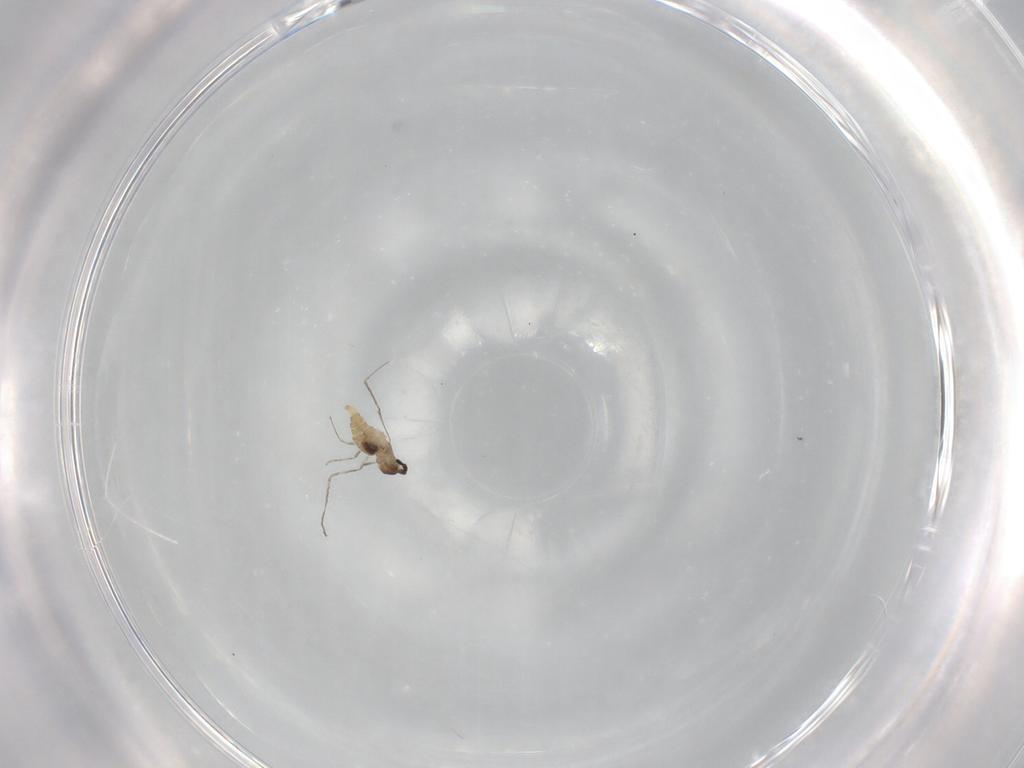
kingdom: Animalia
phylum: Arthropoda
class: Insecta
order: Diptera
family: Cecidomyiidae
